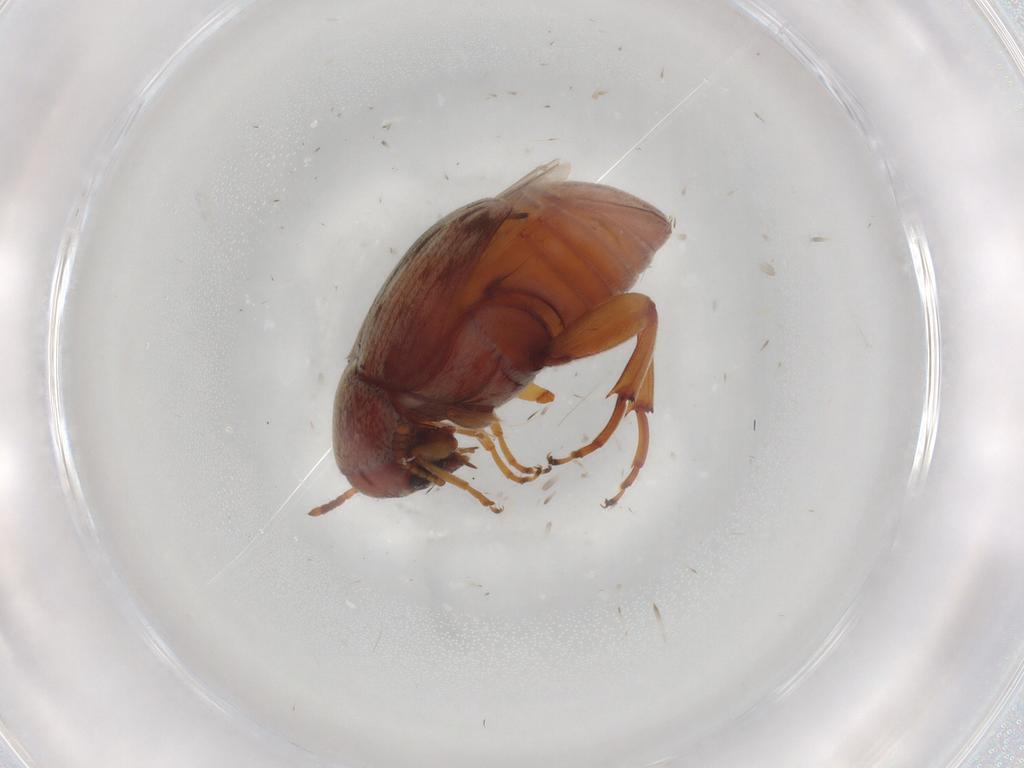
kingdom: Animalia
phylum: Arthropoda
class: Insecta
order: Coleoptera
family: Chrysomelidae
